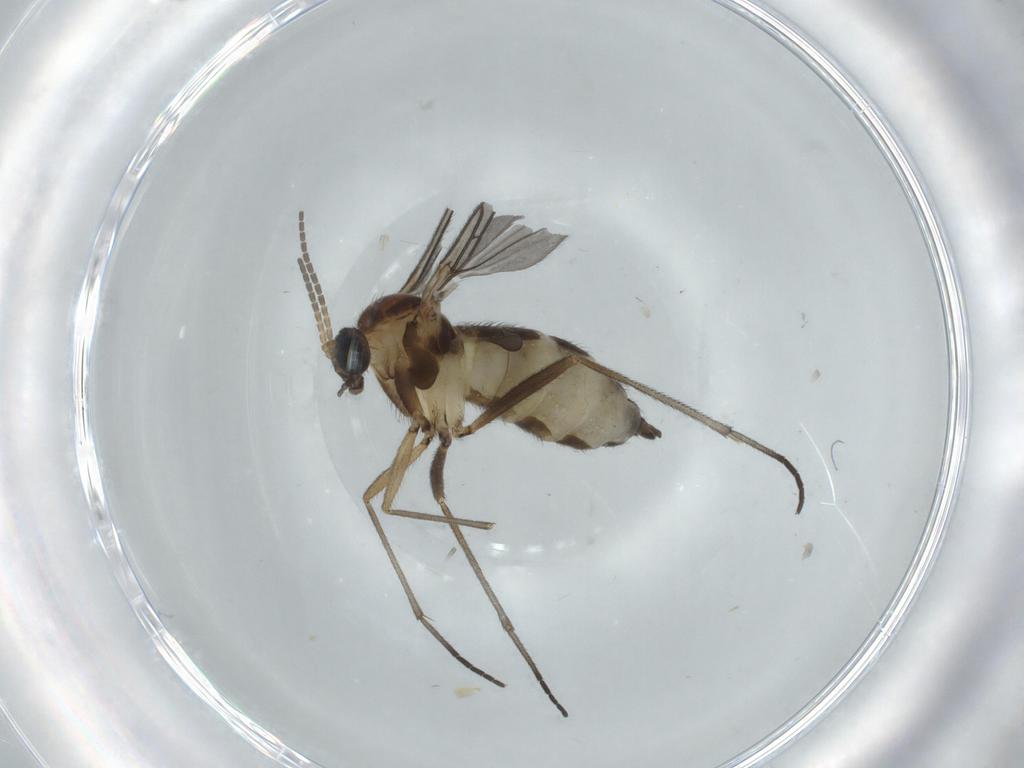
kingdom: Animalia
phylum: Arthropoda
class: Insecta
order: Diptera
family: Sciaridae
